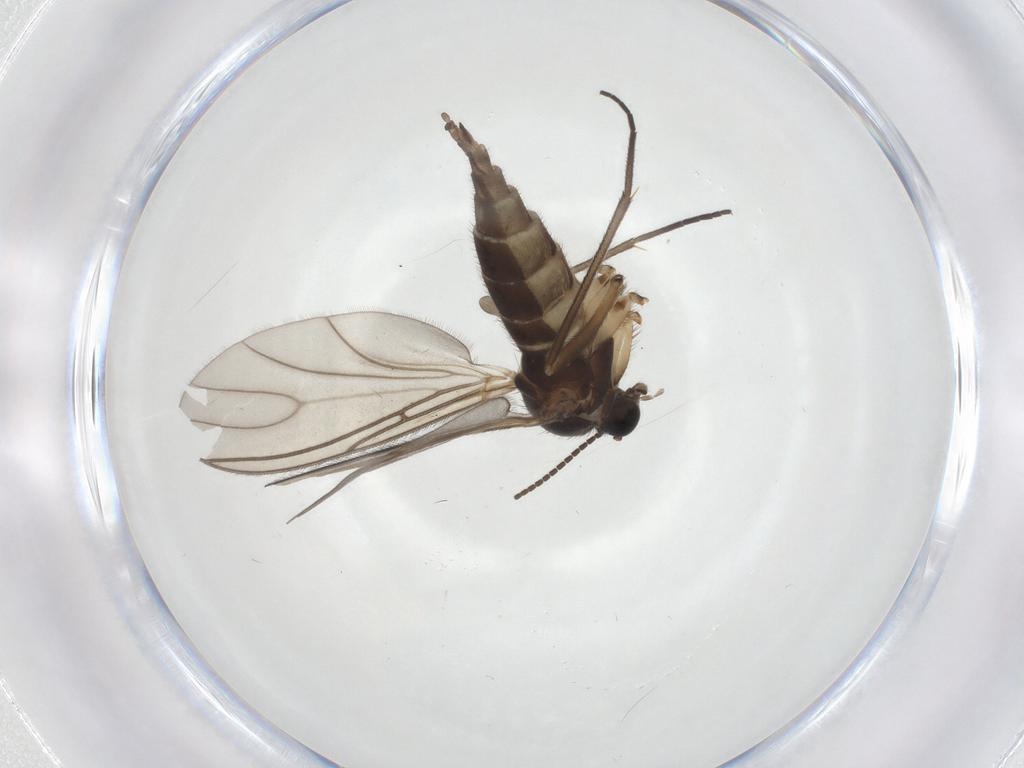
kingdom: Animalia
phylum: Arthropoda
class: Insecta
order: Diptera
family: Sciaridae
